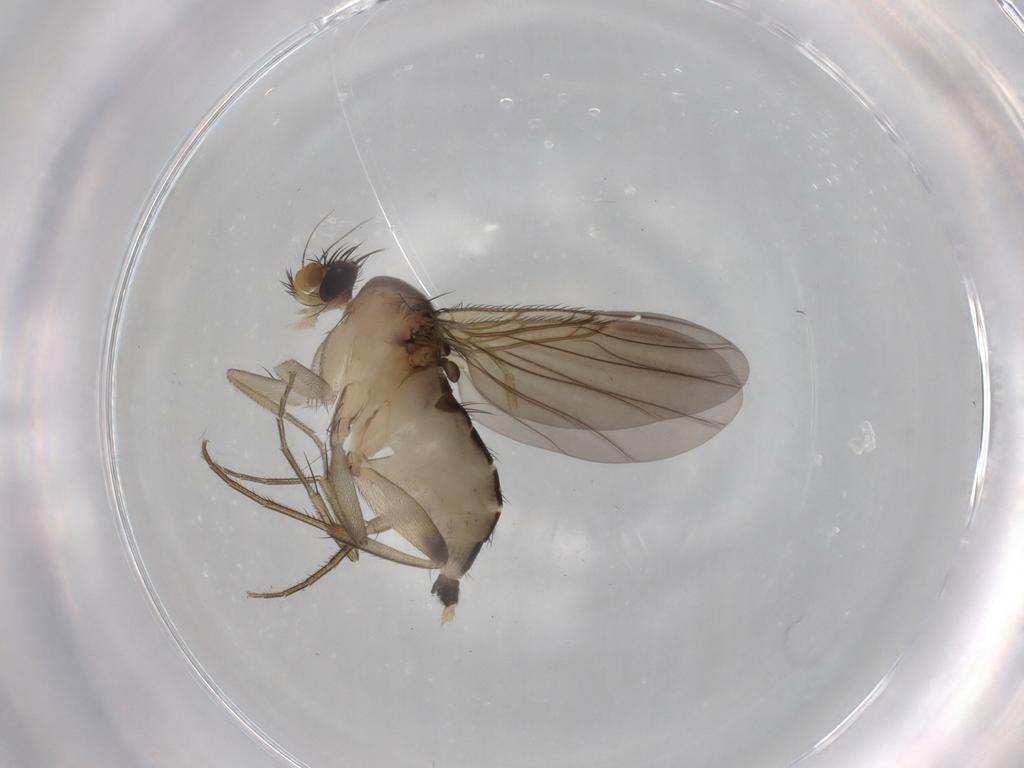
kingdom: Animalia
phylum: Arthropoda
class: Insecta
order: Diptera
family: Phoridae
